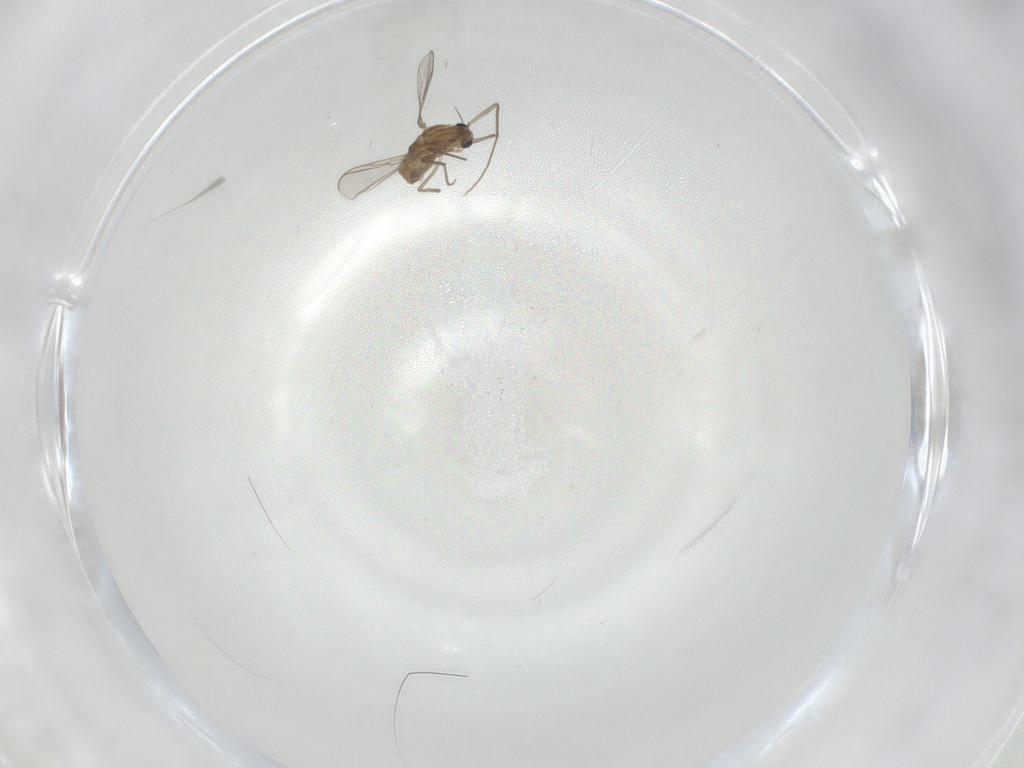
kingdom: Animalia
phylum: Arthropoda
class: Insecta
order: Diptera
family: Chironomidae
